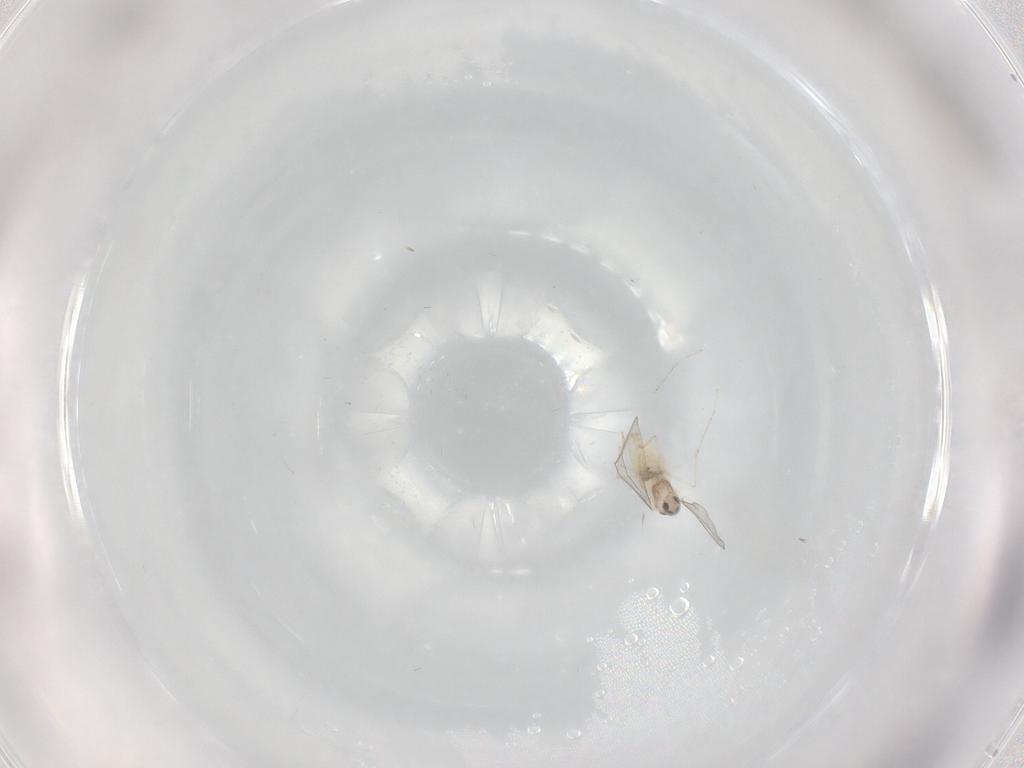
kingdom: Animalia
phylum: Arthropoda
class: Insecta
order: Diptera
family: Cecidomyiidae
